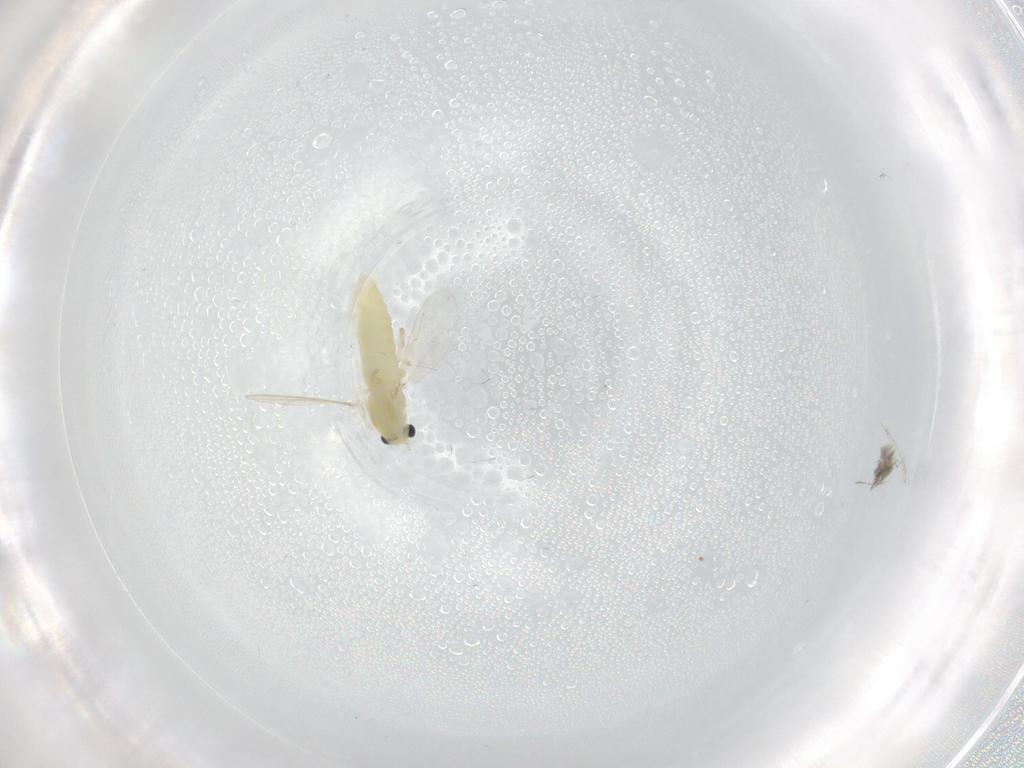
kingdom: Animalia
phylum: Arthropoda
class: Insecta
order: Diptera
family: Chironomidae
